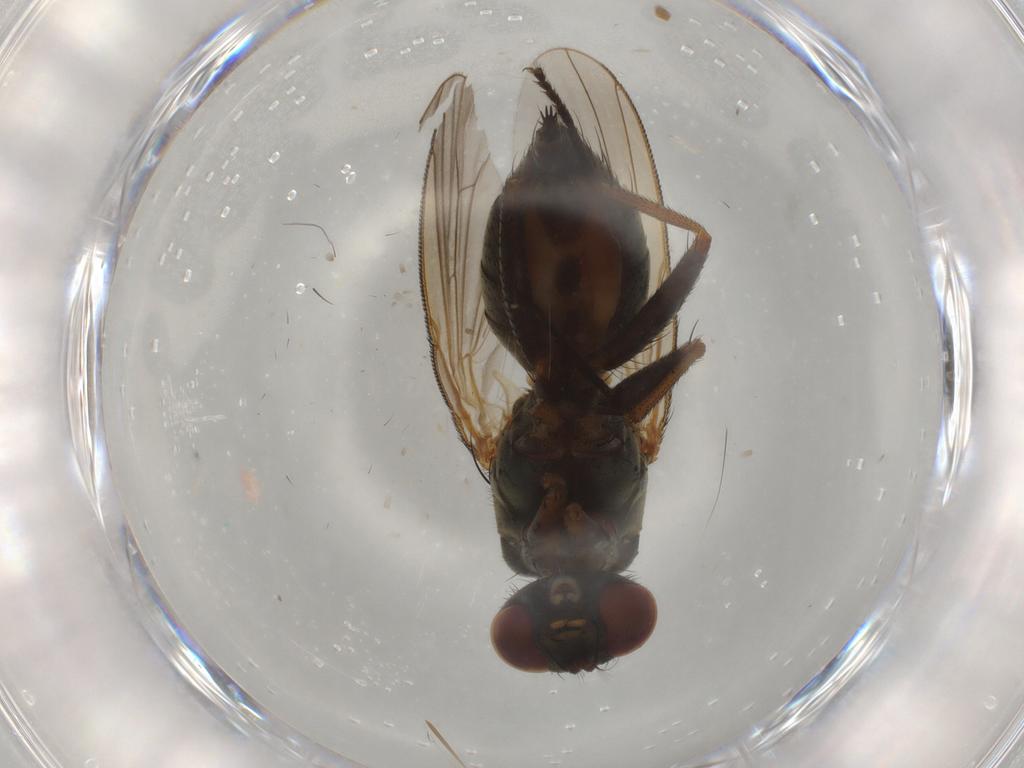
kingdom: Animalia
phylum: Arthropoda
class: Insecta
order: Diptera
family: Muscidae
